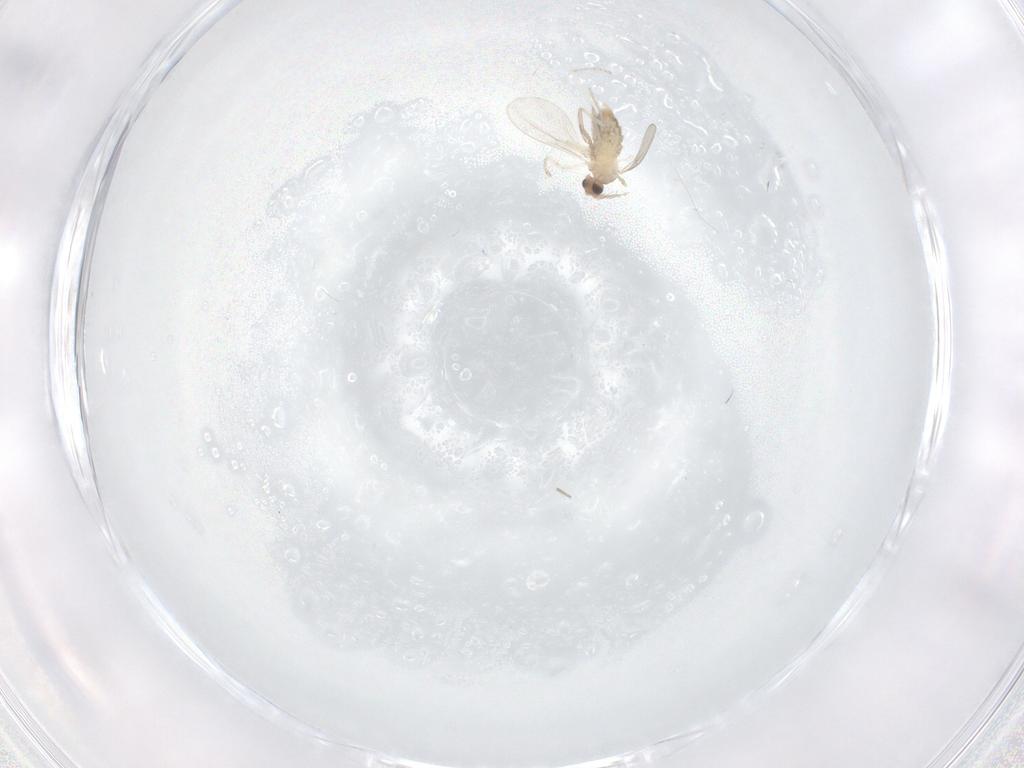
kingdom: Animalia
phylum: Arthropoda
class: Insecta
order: Diptera
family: Cecidomyiidae
